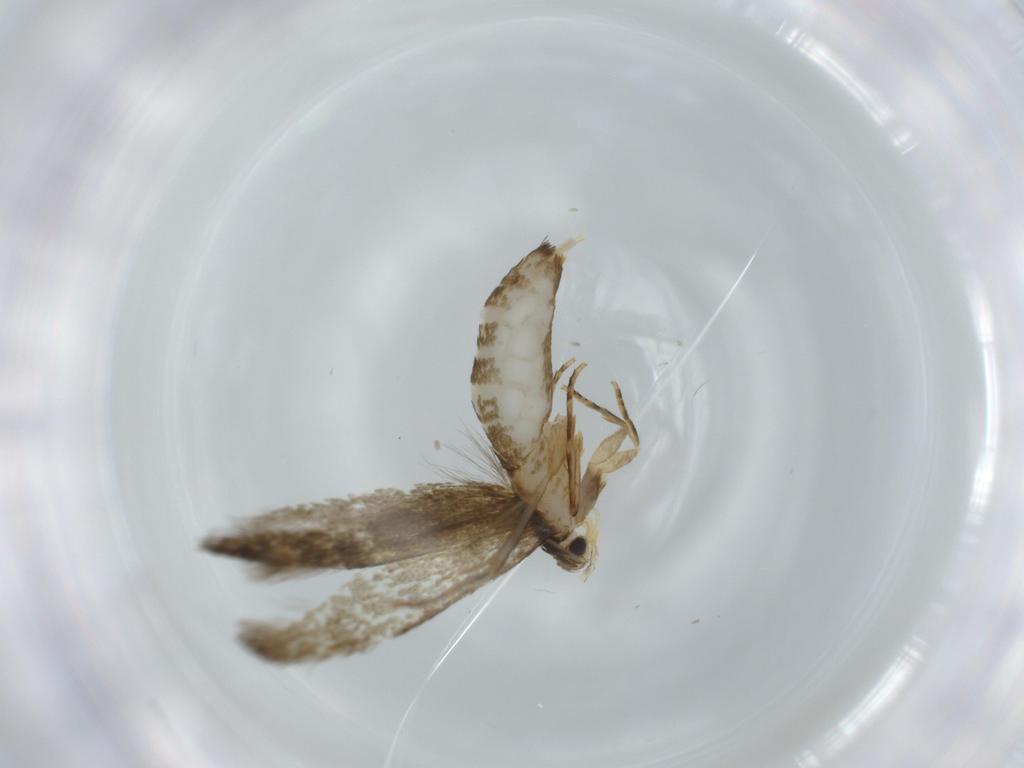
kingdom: Animalia
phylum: Arthropoda
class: Insecta
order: Lepidoptera
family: Tineidae
